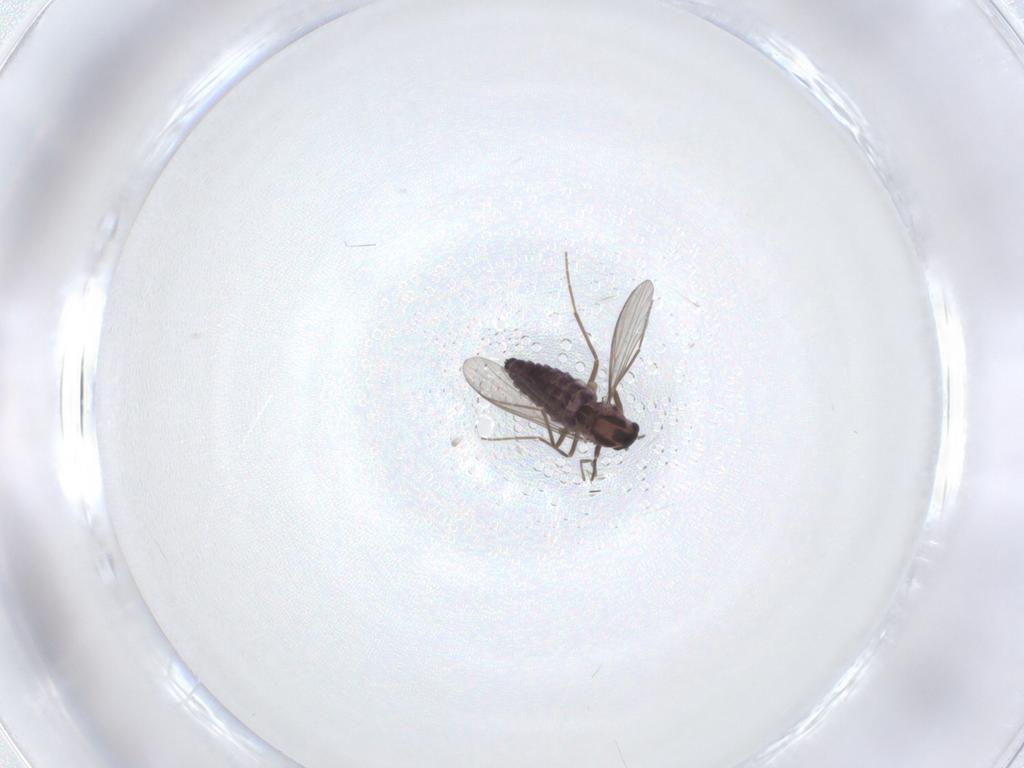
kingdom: Animalia
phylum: Arthropoda
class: Insecta
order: Diptera
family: Chironomidae
